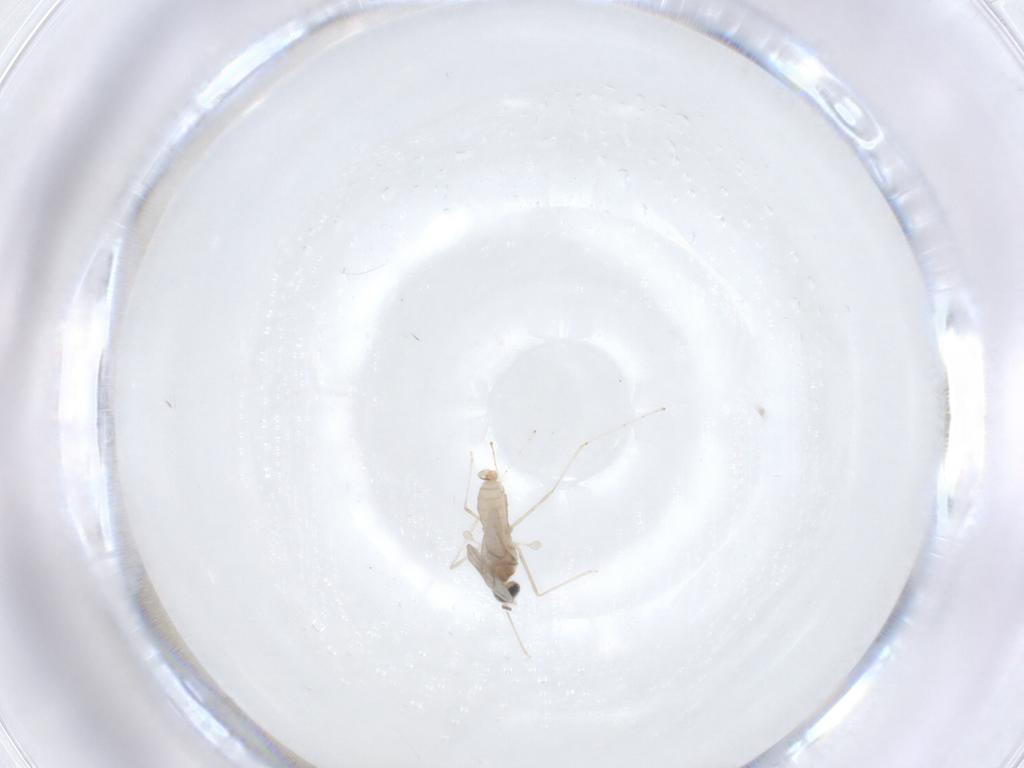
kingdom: Animalia
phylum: Arthropoda
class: Insecta
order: Diptera
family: Cecidomyiidae
